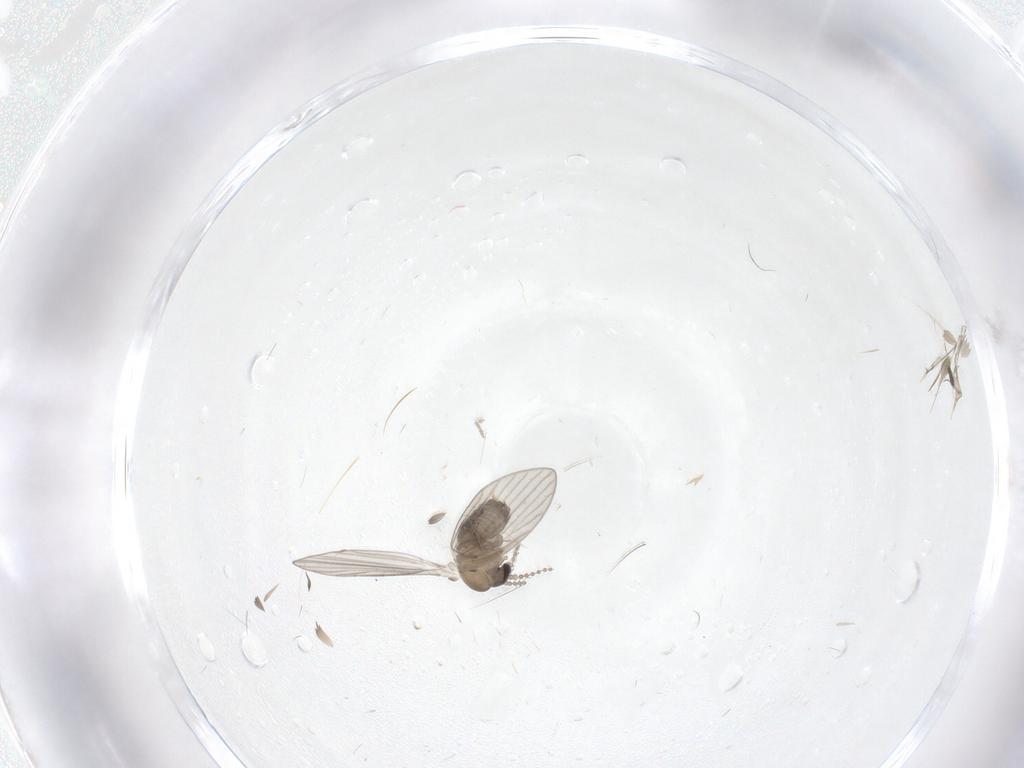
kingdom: Animalia
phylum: Arthropoda
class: Insecta
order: Diptera
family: Psychodidae
